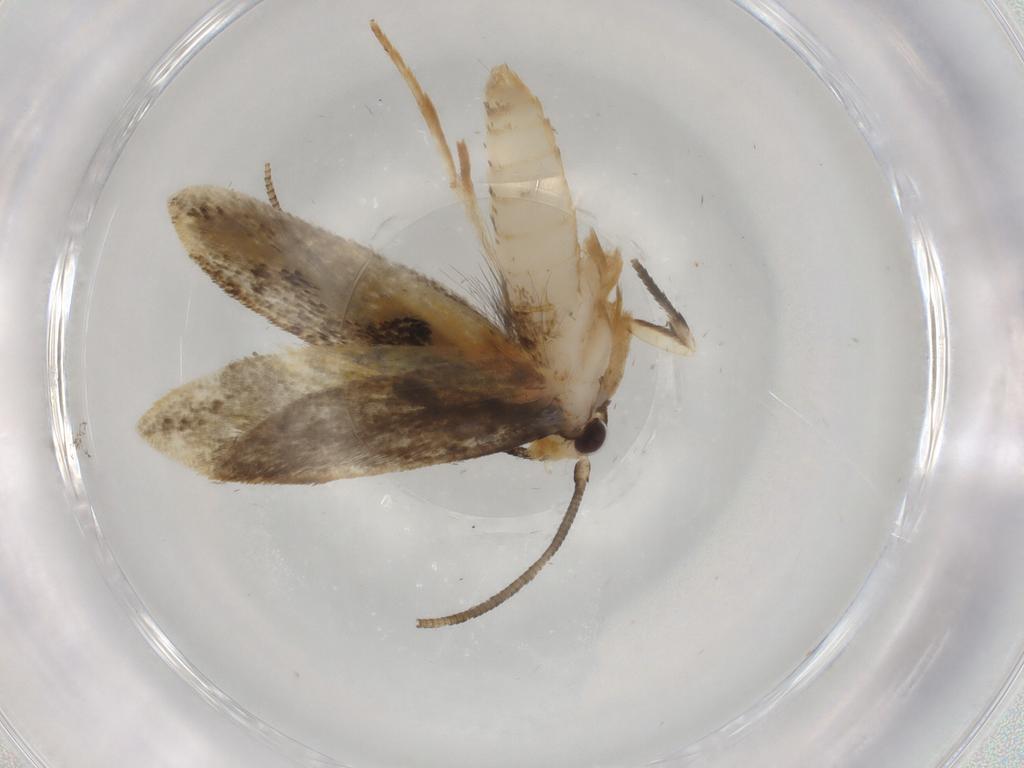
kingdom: Animalia
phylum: Arthropoda
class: Insecta
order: Lepidoptera
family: Tineidae
